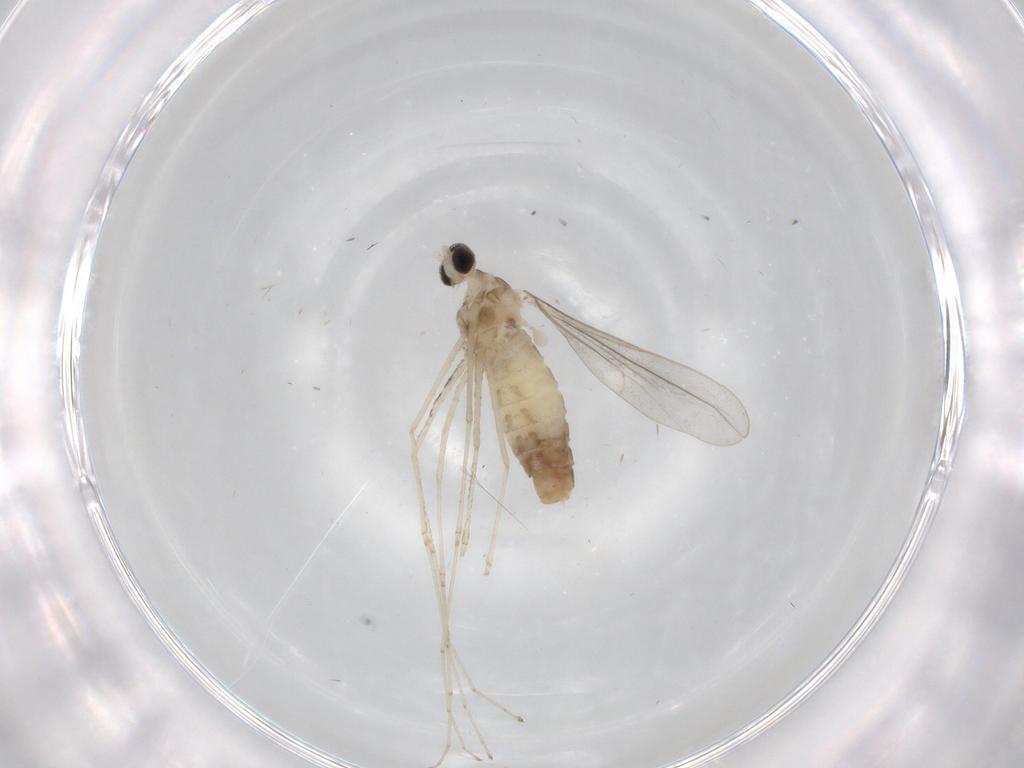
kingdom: Animalia
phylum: Arthropoda
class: Insecta
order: Diptera
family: Cecidomyiidae
